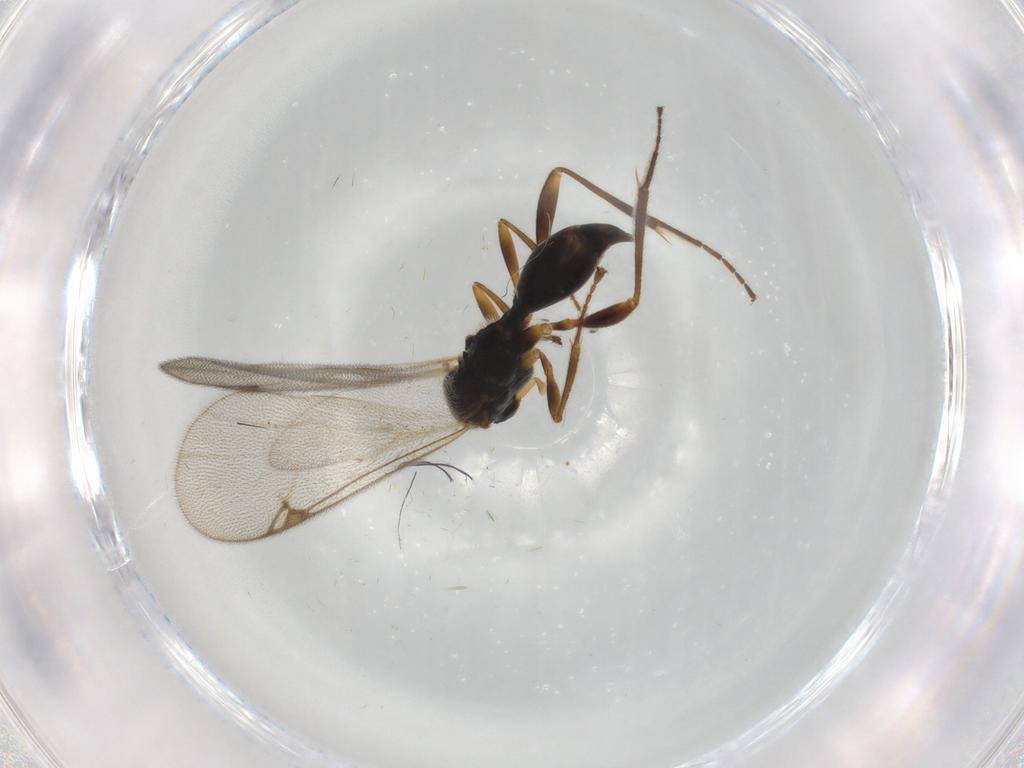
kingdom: Animalia
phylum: Arthropoda
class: Insecta
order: Hymenoptera
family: Proctotrupidae
